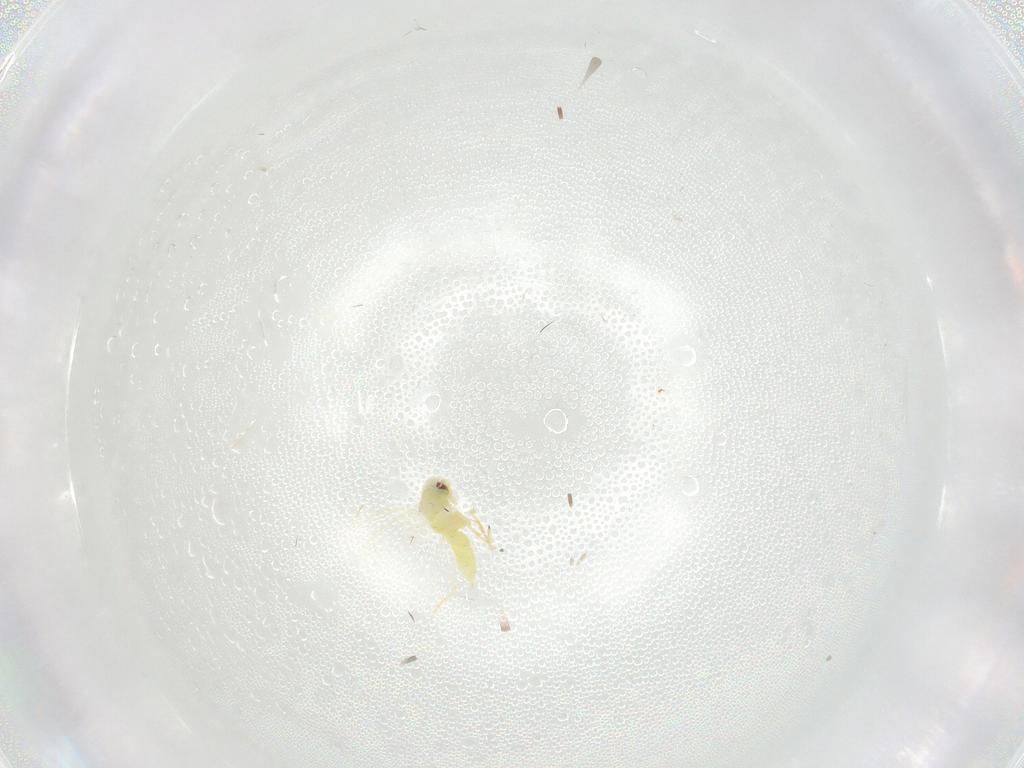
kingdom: Animalia
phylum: Arthropoda
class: Insecta
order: Hemiptera
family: Aleyrodidae
